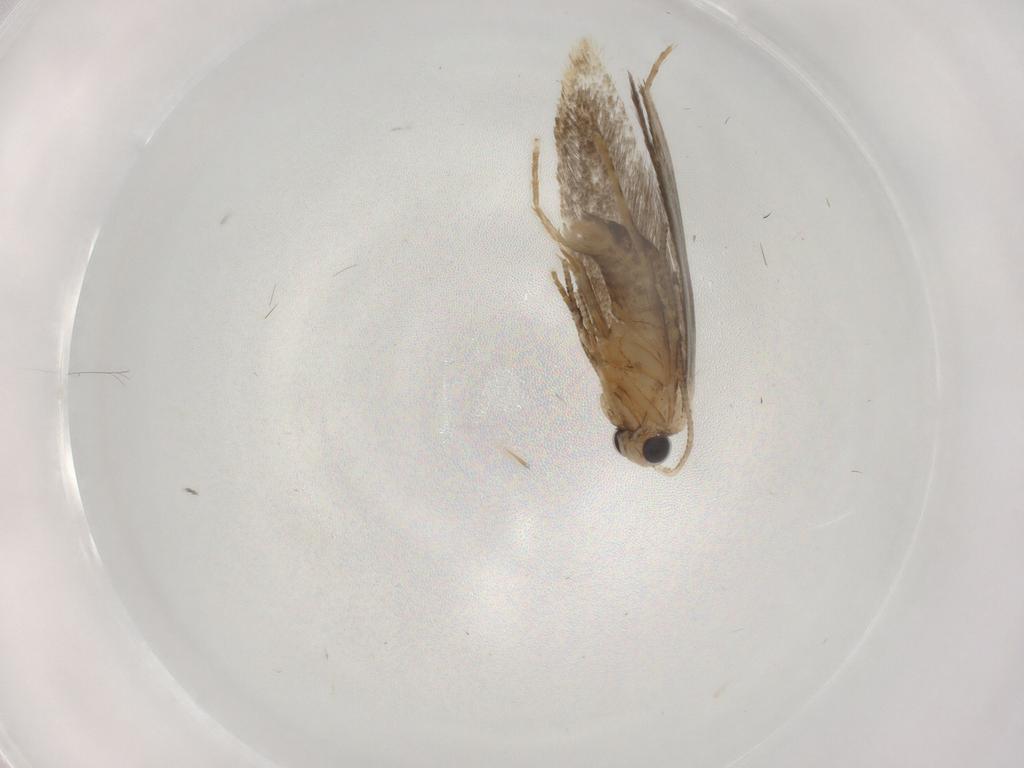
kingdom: Animalia
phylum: Arthropoda
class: Insecta
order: Lepidoptera
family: Tineidae
